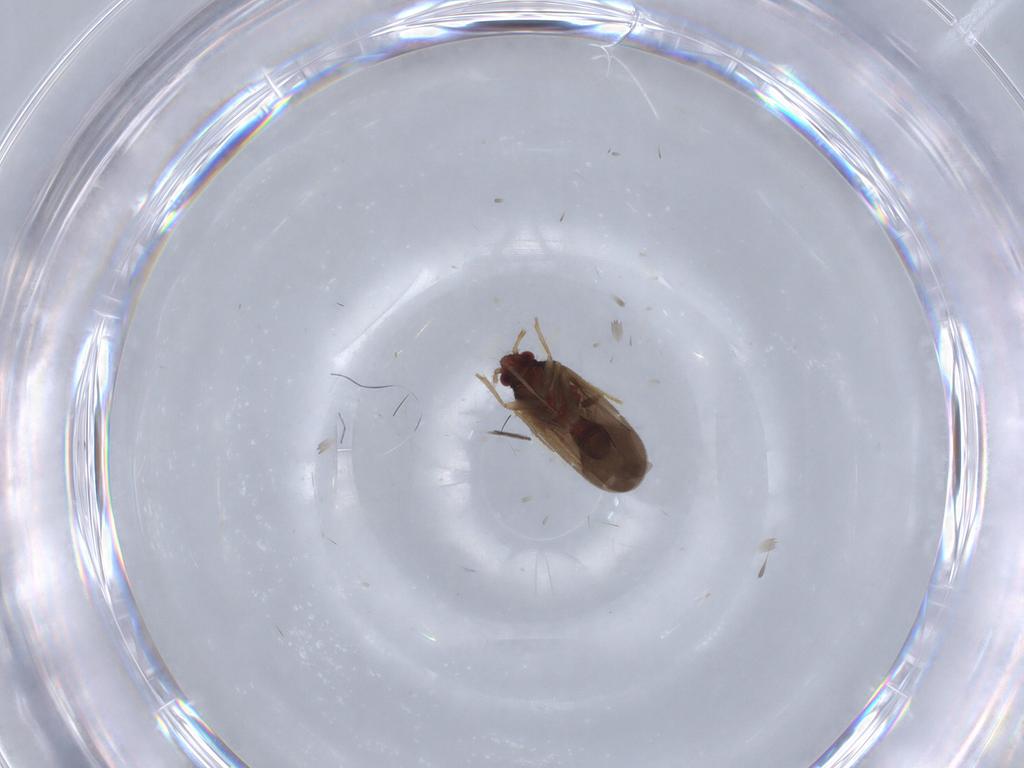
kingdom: Animalia
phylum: Arthropoda
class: Insecta
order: Hemiptera
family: Ceratocombidae
